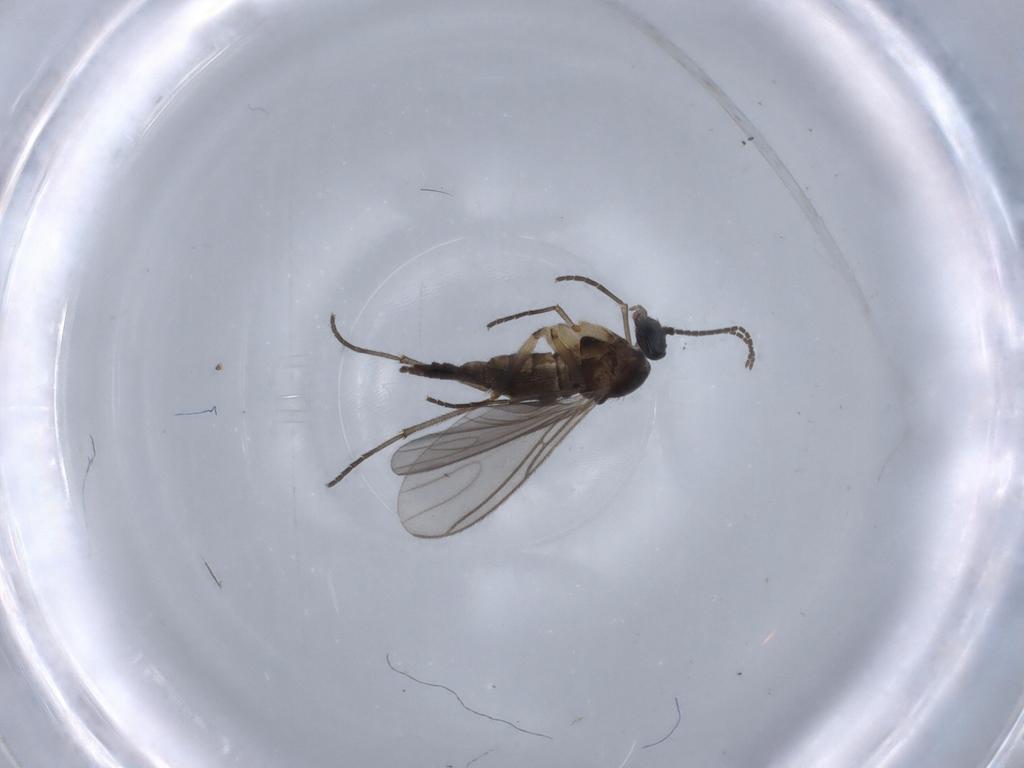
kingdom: Animalia
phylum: Arthropoda
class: Insecta
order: Diptera
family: Sciaridae
